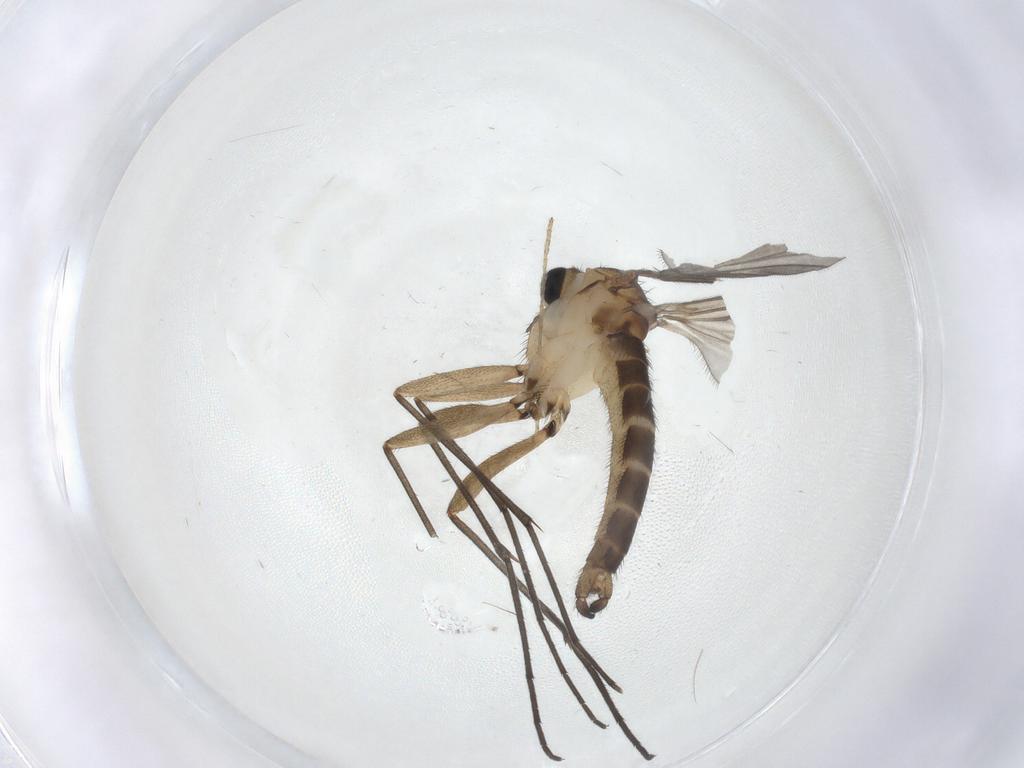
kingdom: Animalia
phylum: Arthropoda
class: Insecta
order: Diptera
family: Sciaridae
